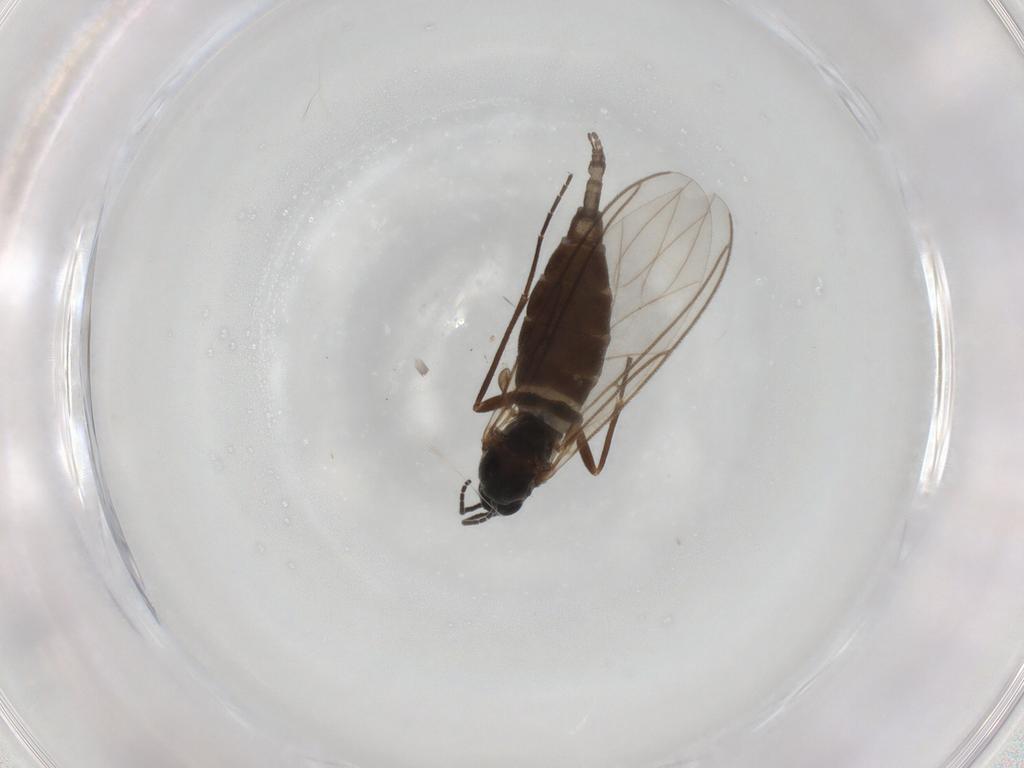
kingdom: Animalia
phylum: Arthropoda
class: Insecta
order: Diptera
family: Sciaridae
